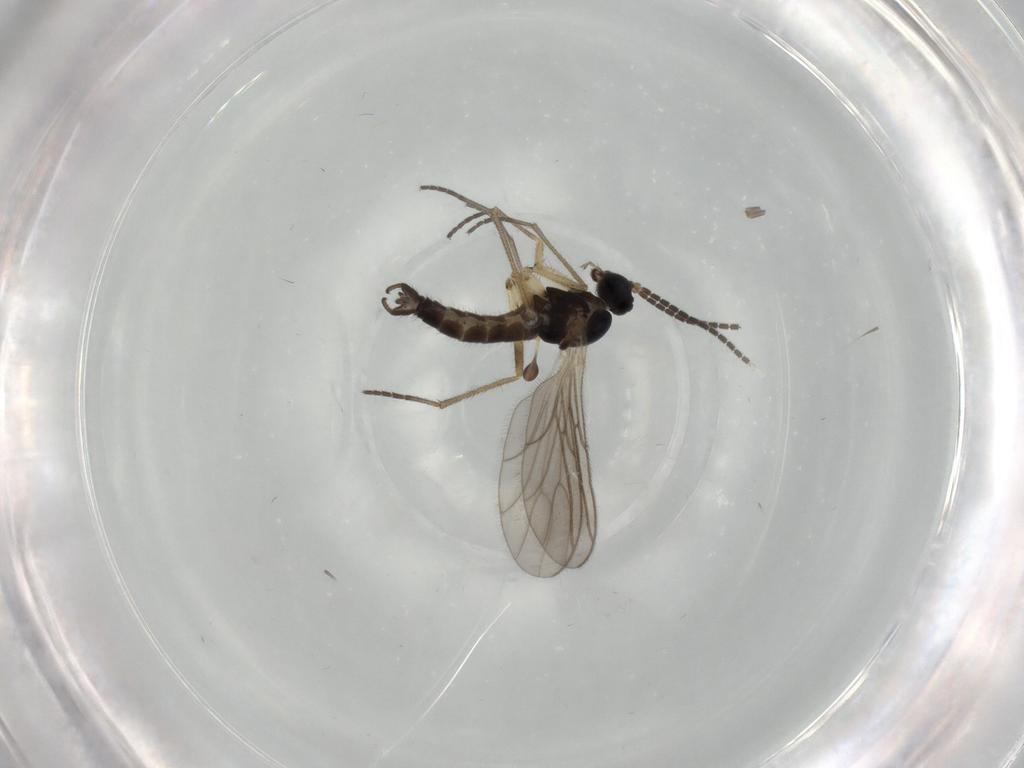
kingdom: Animalia
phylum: Arthropoda
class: Insecta
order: Diptera
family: Sciaridae
